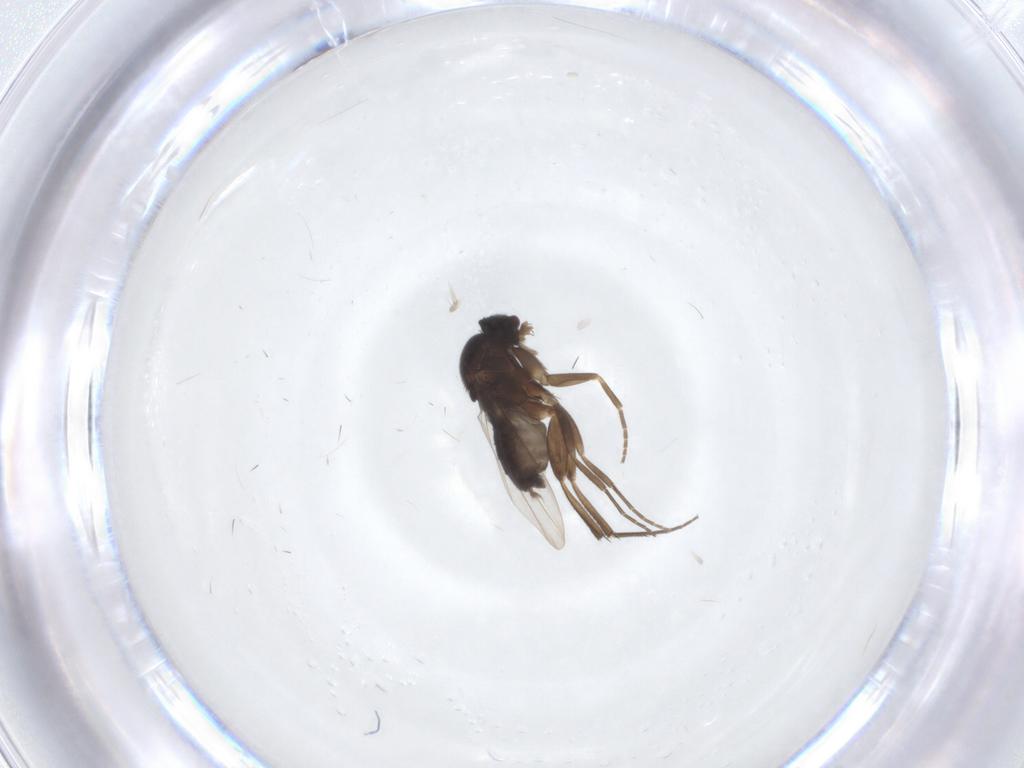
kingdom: Animalia
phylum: Arthropoda
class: Insecta
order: Diptera
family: Phoridae
